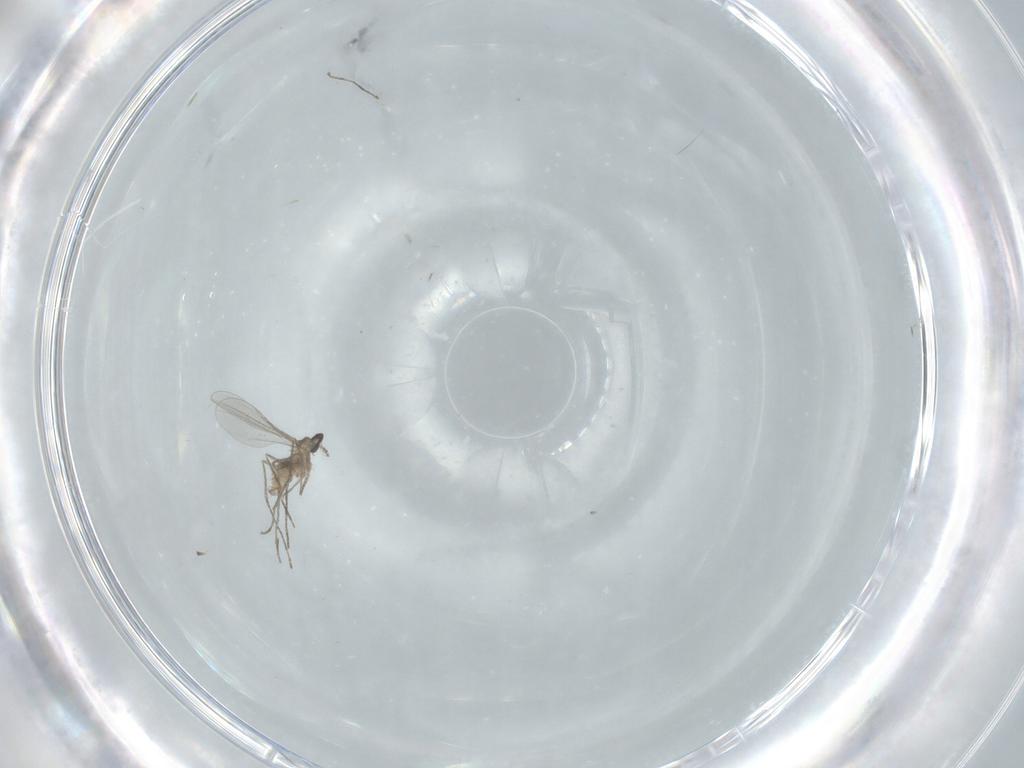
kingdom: Animalia
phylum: Arthropoda
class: Insecta
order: Diptera
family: Cecidomyiidae
